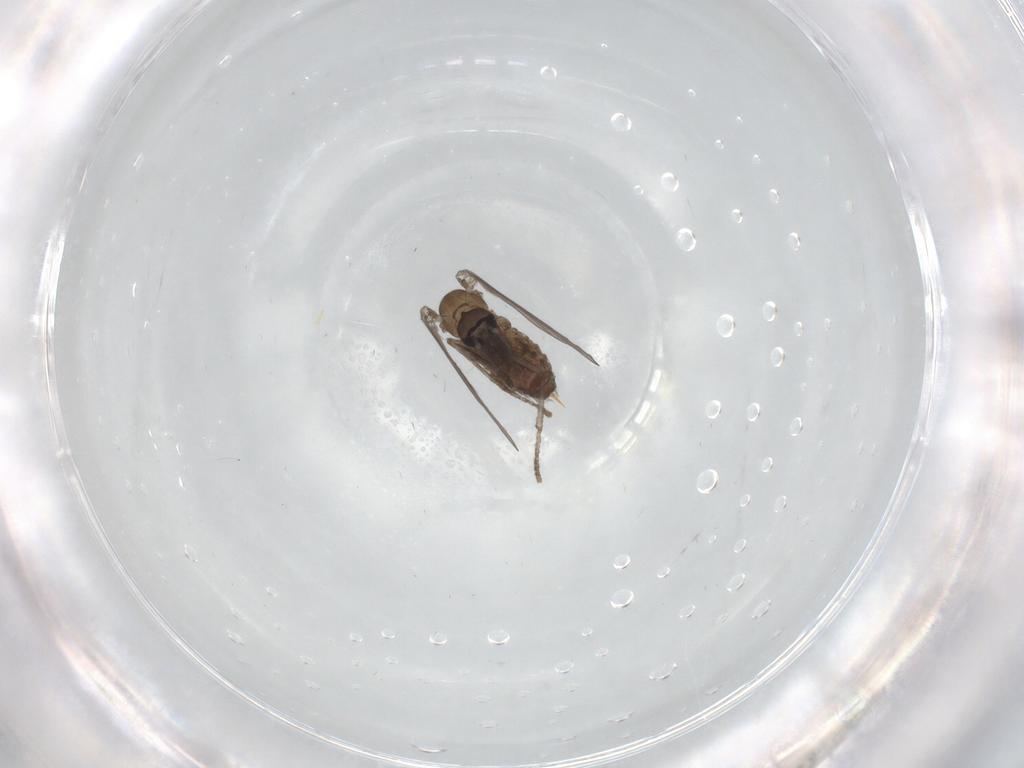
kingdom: Animalia
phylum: Arthropoda
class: Insecta
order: Diptera
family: Psychodidae
